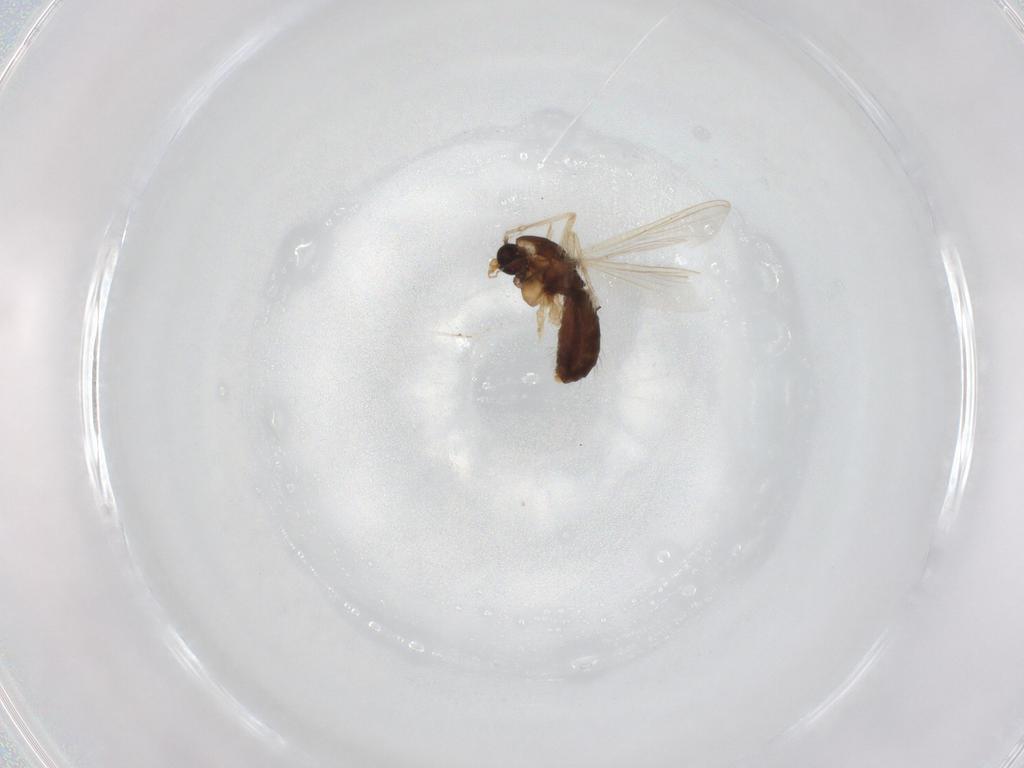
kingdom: Animalia
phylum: Arthropoda
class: Insecta
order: Diptera
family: Chironomidae
